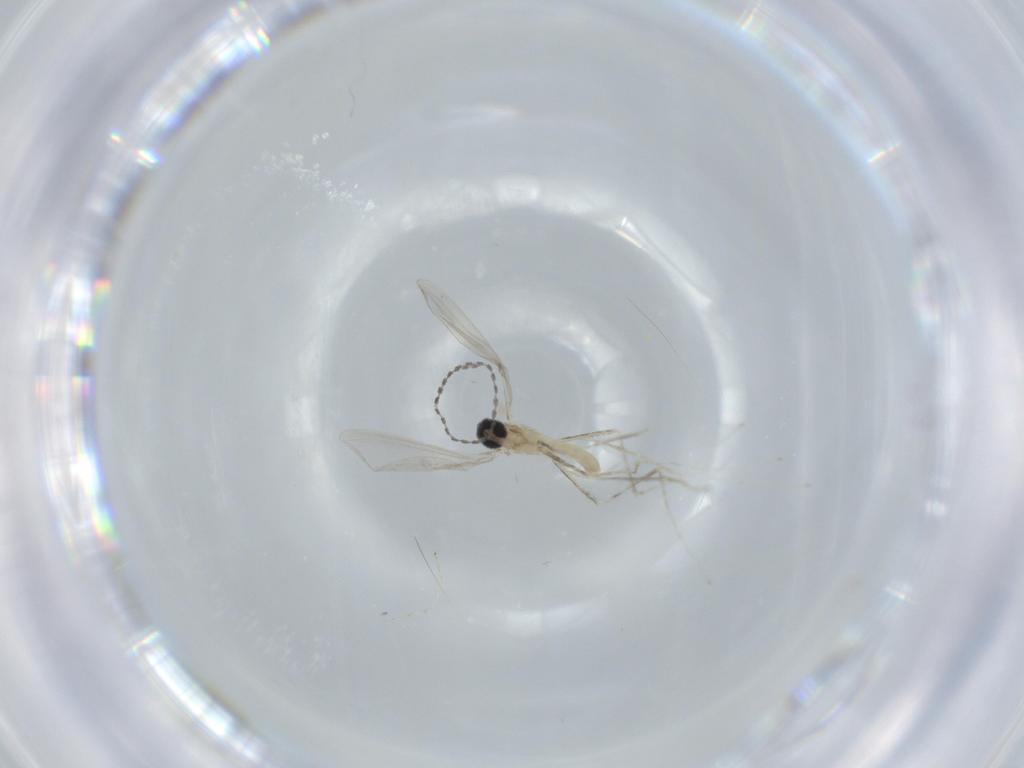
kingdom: Animalia
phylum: Arthropoda
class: Insecta
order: Diptera
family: Cecidomyiidae
